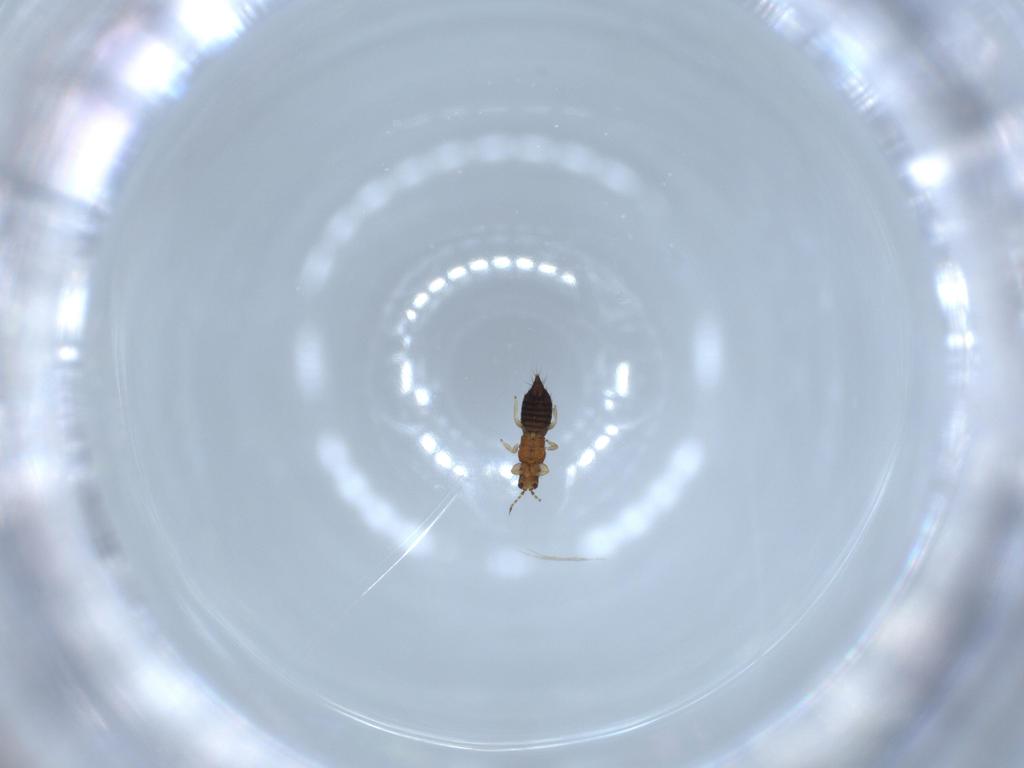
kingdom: Animalia
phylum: Arthropoda
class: Insecta
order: Thysanoptera
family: Thripidae
